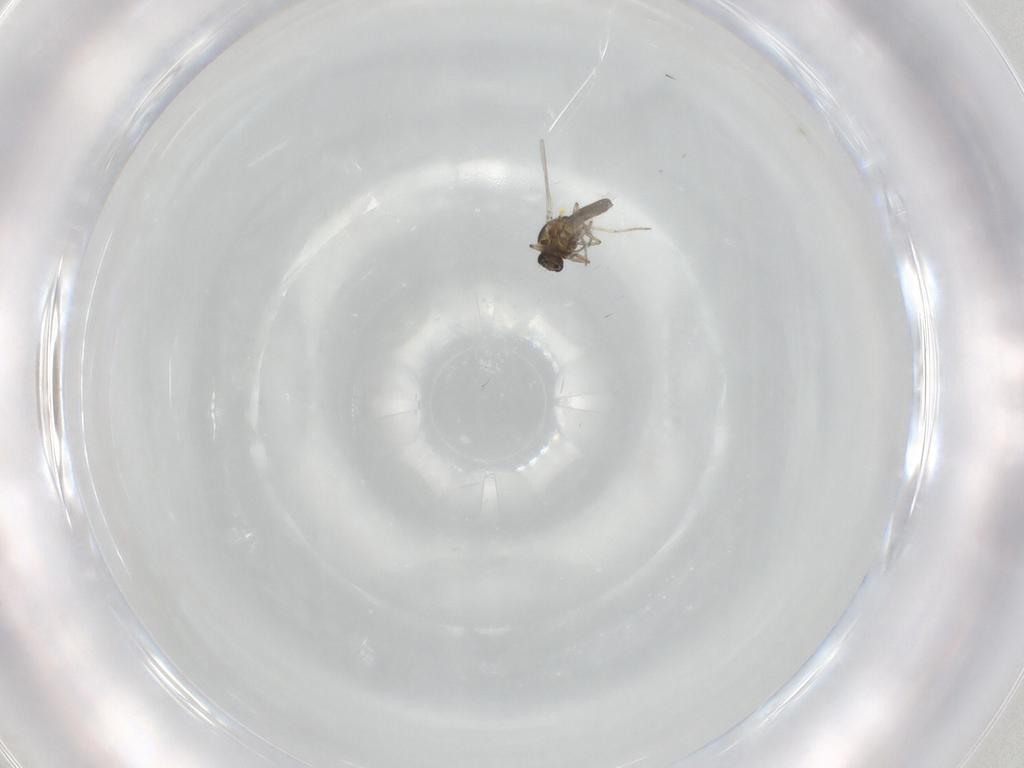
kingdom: Animalia
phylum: Arthropoda
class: Insecta
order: Diptera
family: Ceratopogonidae
